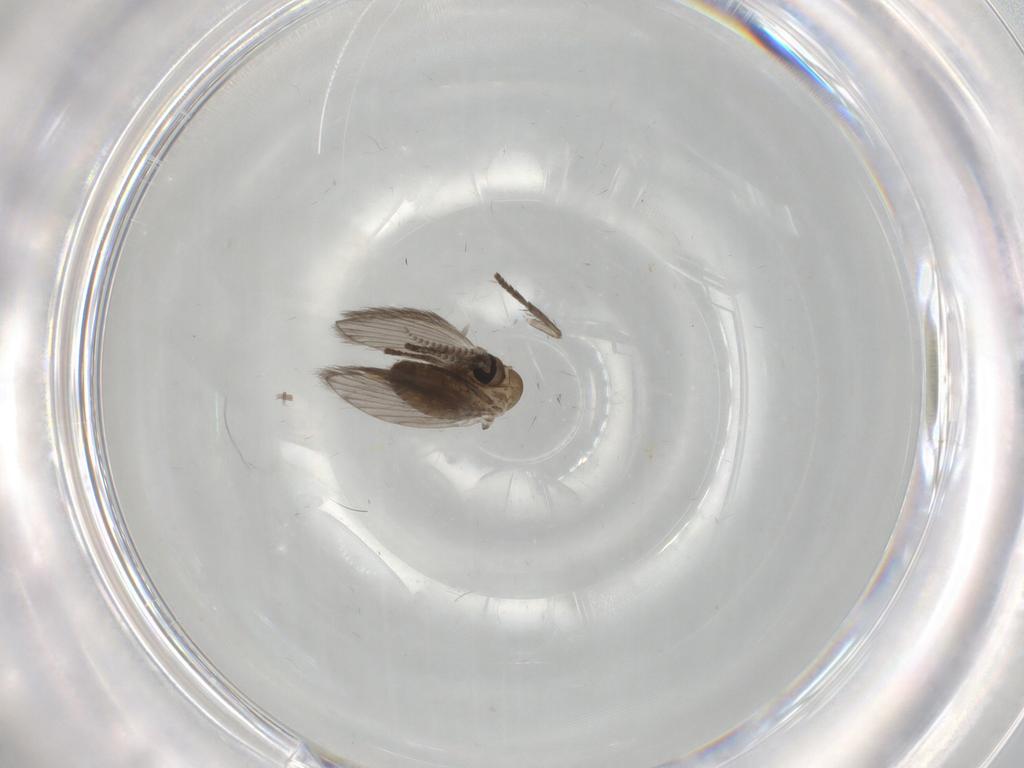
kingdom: Animalia
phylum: Arthropoda
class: Insecta
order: Diptera
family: Psychodidae
